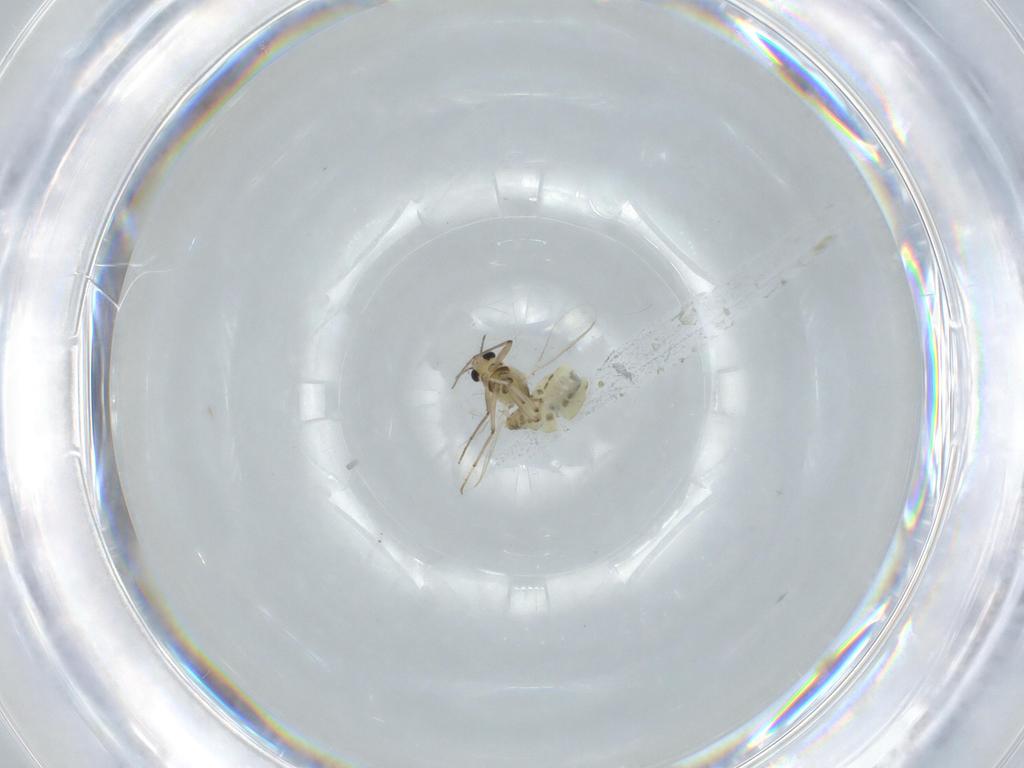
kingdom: Animalia
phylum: Arthropoda
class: Insecta
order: Diptera
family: Chironomidae
